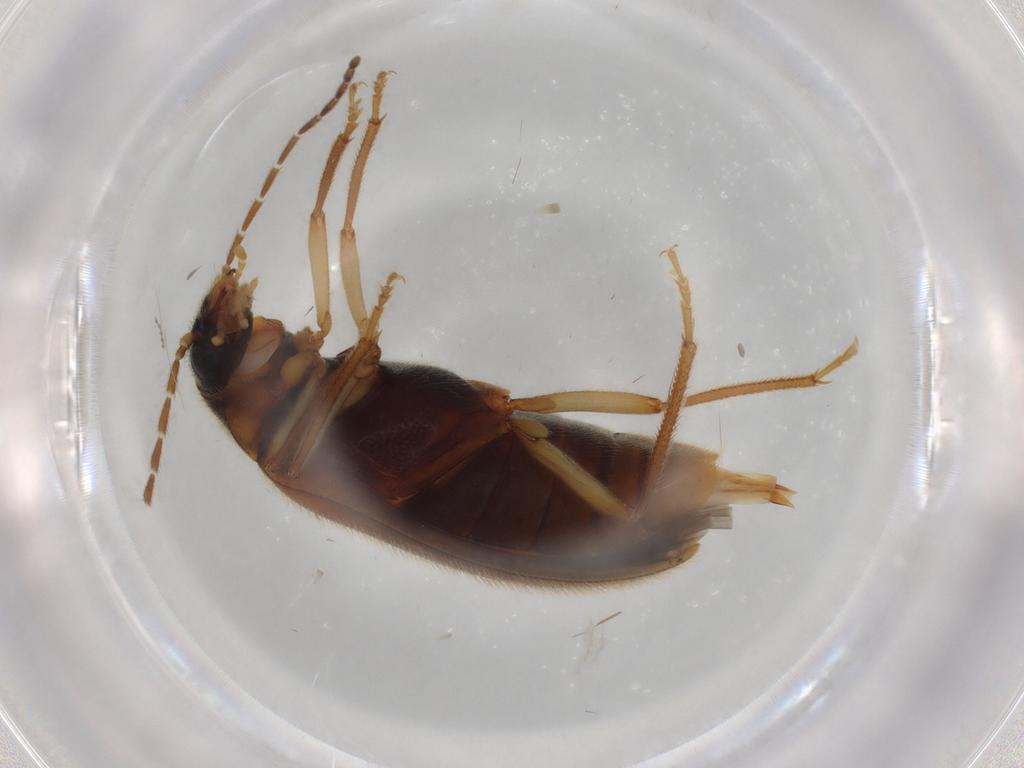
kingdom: Animalia
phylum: Arthropoda
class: Insecta
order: Coleoptera
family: Ptilodactylidae
